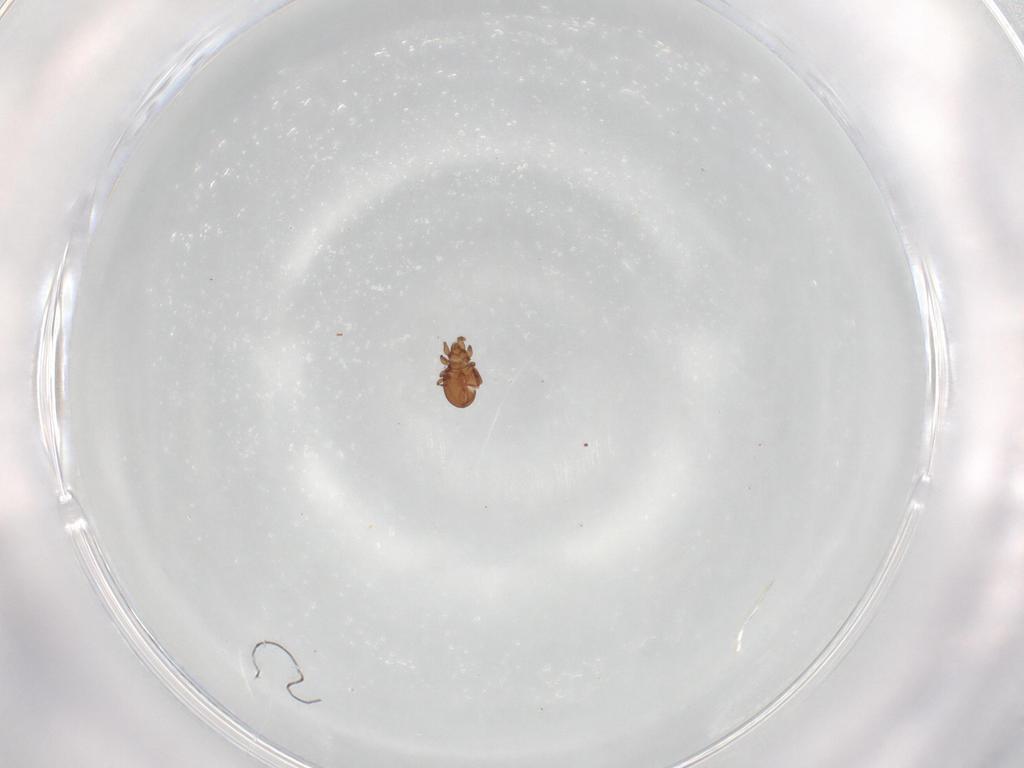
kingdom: Animalia
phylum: Arthropoda
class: Arachnida
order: Sarcoptiformes
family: Eremaeidae
